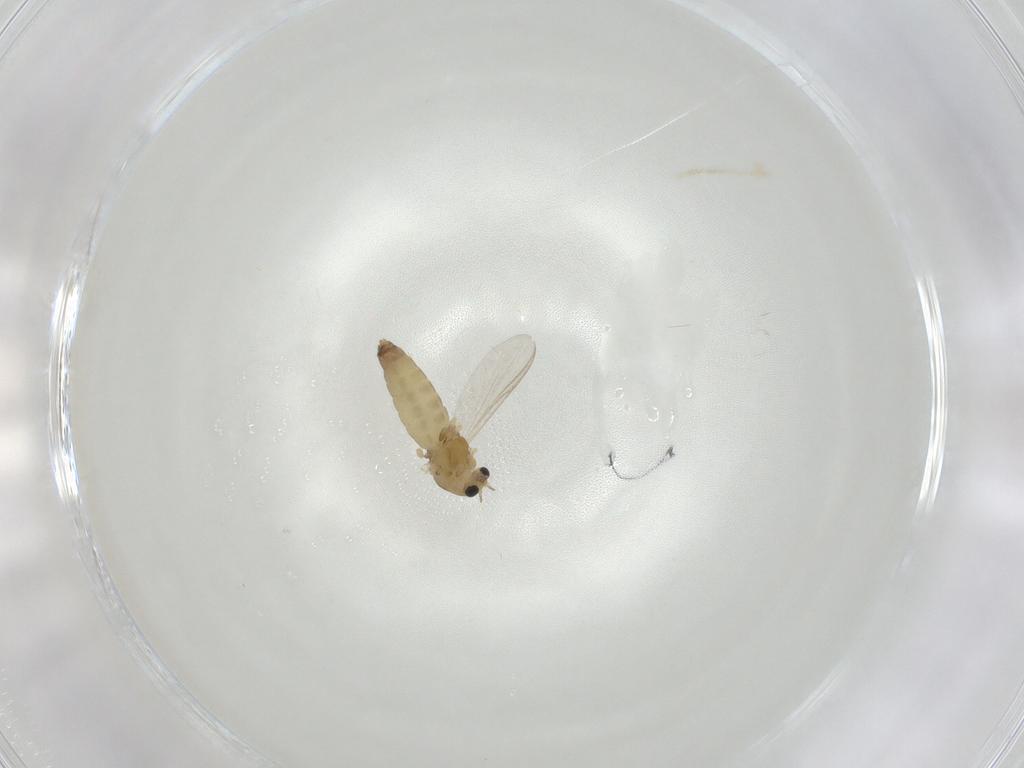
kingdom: Animalia
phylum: Arthropoda
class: Insecta
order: Diptera
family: Chironomidae
